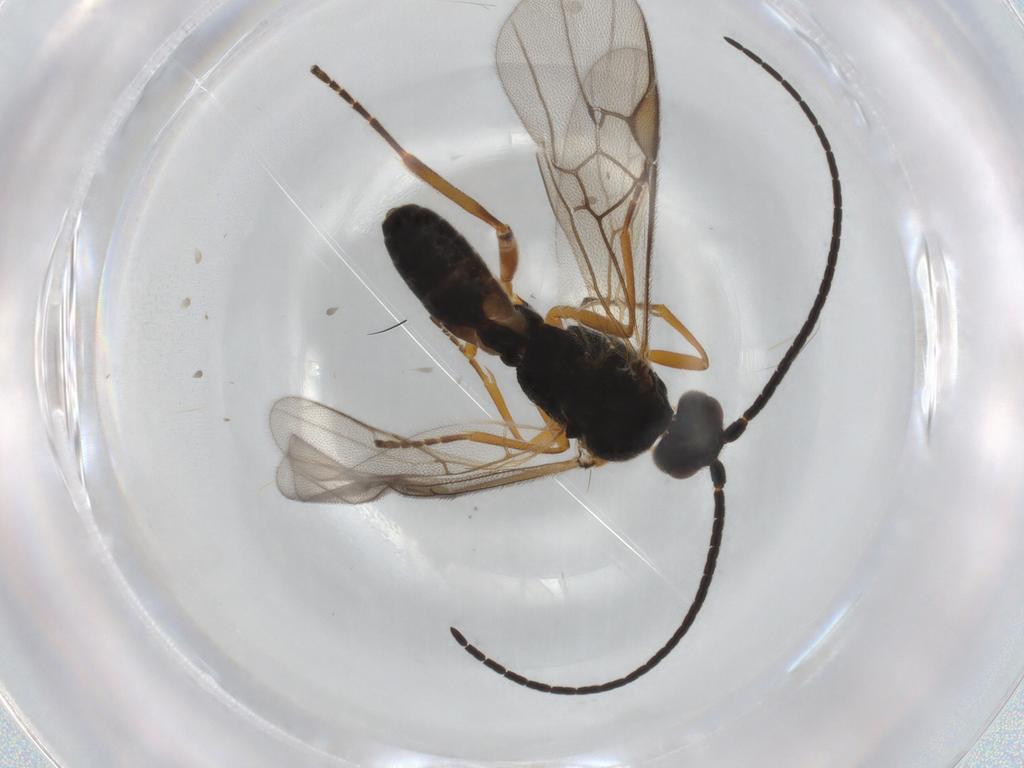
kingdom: Animalia
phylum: Arthropoda
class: Insecta
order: Hymenoptera
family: Braconidae
